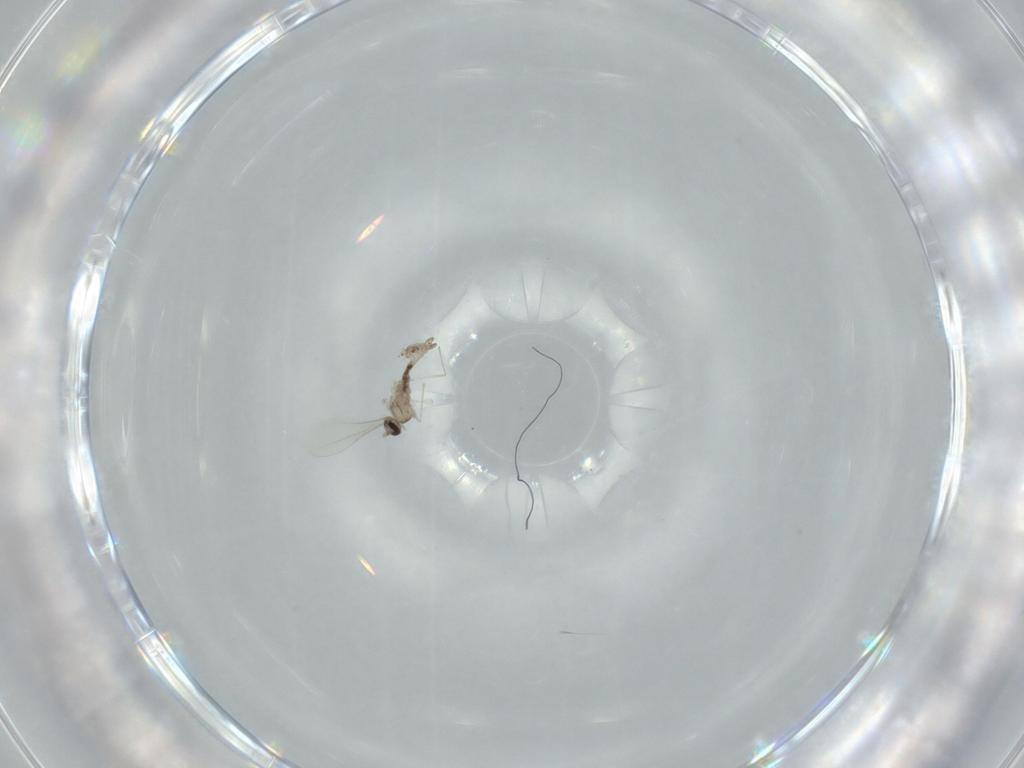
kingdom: Animalia
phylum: Arthropoda
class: Insecta
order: Diptera
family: Cecidomyiidae
